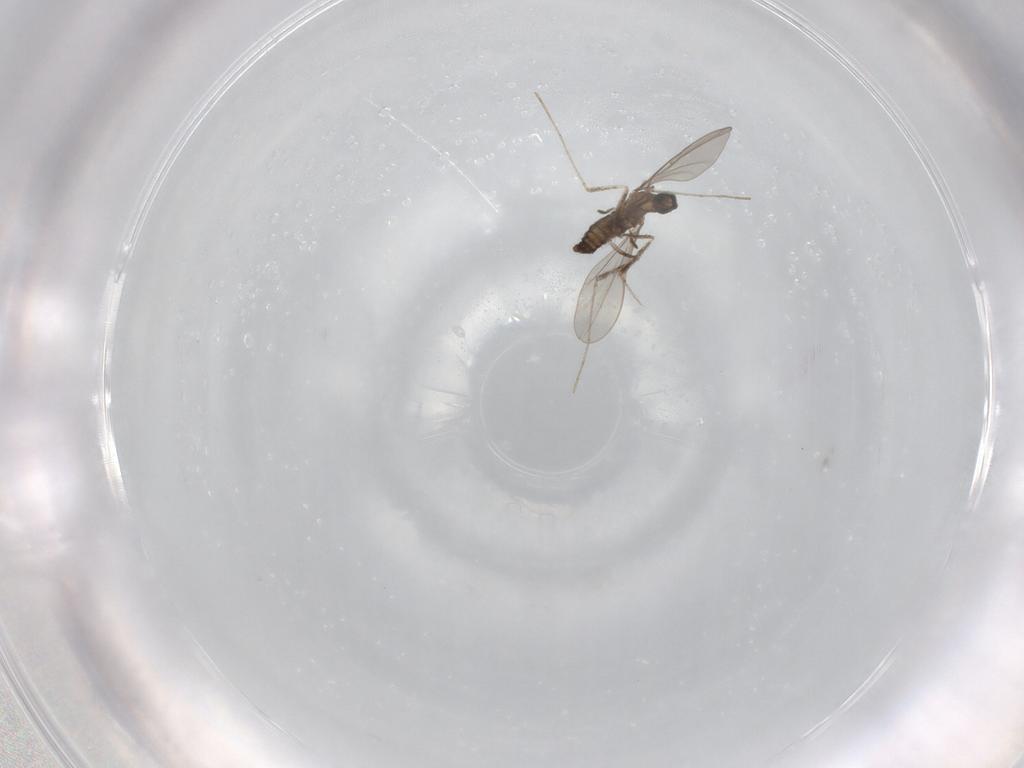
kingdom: Animalia
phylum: Arthropoda
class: Insecta
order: Diptera
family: Cecidomyiidae
